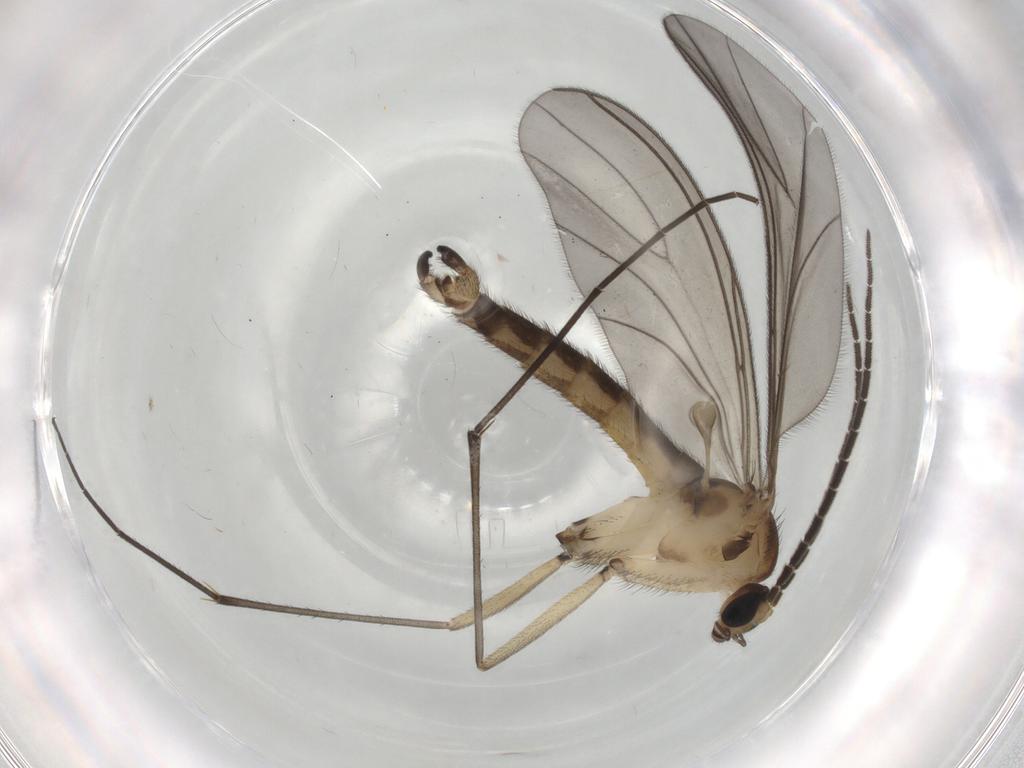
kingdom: Animalia
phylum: Arthropoda
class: Insecta
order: Diptera
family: Sciaridae
